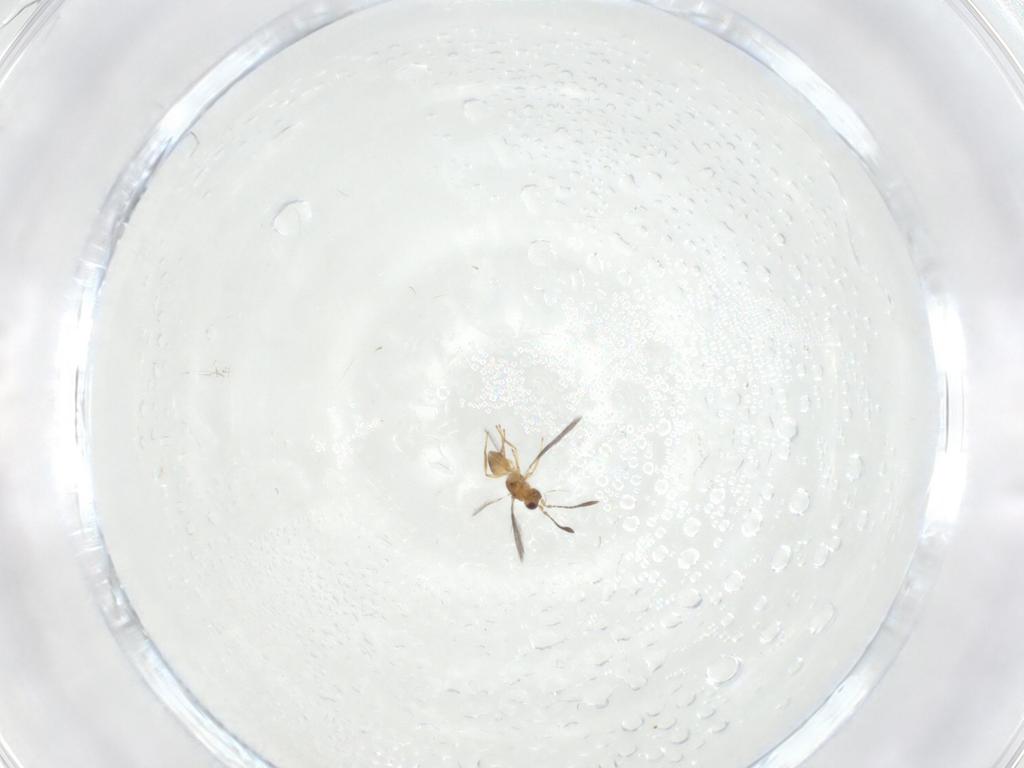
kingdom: Animalia
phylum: Arthropoda
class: Insecta
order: Hymenoptera
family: Mymaridae
